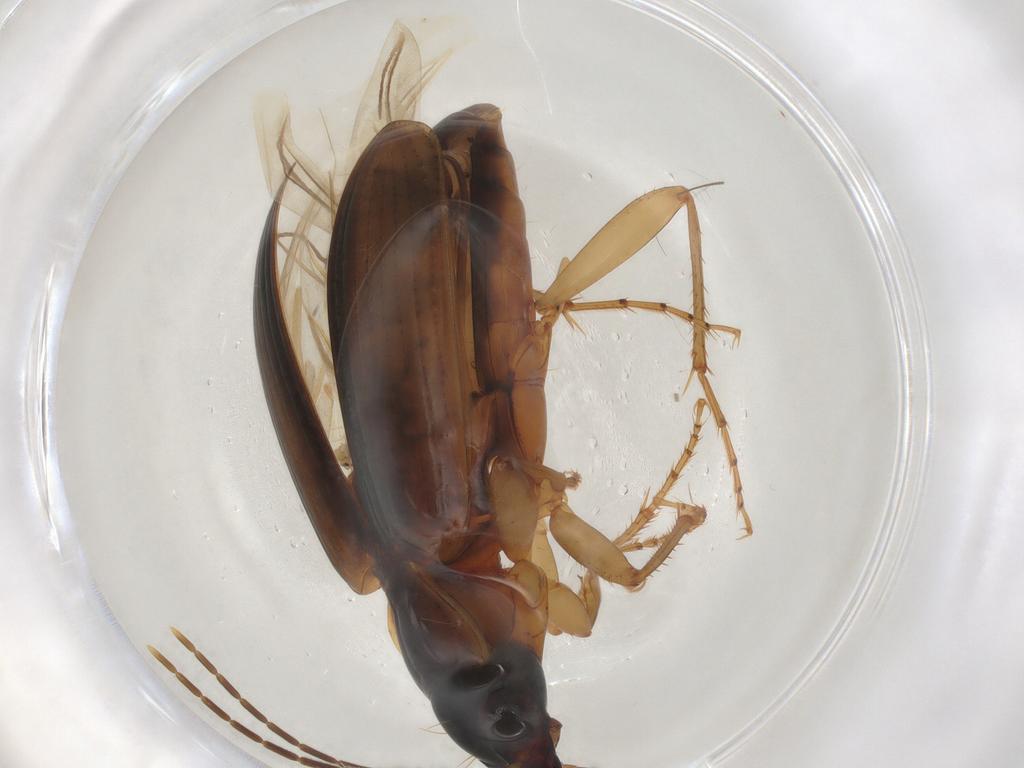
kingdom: Animalia
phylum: Arthropoda
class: Insecta
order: Coleoptera
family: Carabidae
